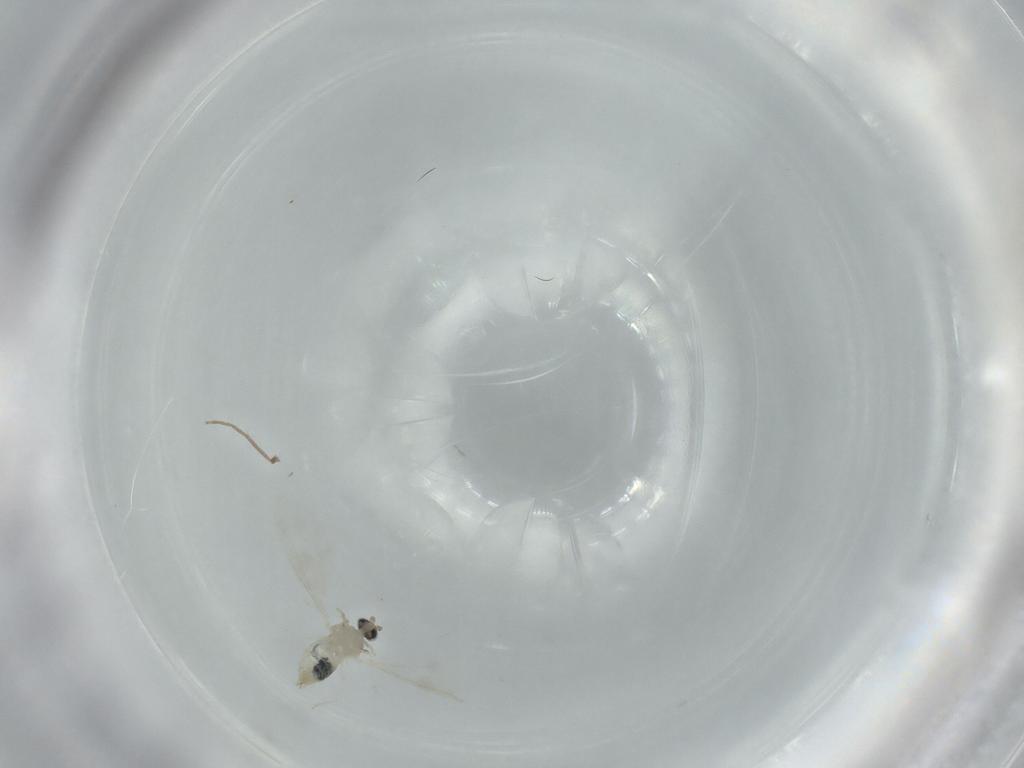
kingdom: Animalia
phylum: Arthropoda
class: Insecta
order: Diptera
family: Cecidomyiidae
